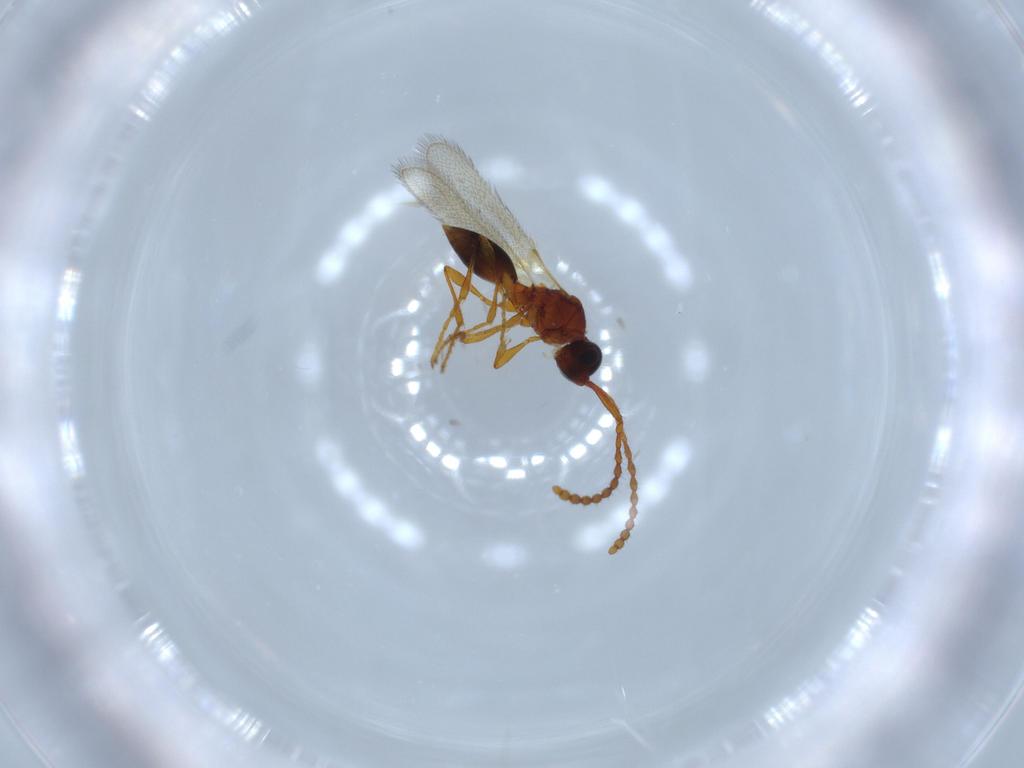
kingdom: Animalia
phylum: Arthropoda
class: Insecta
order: Hymenoptera
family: Diapriidae
